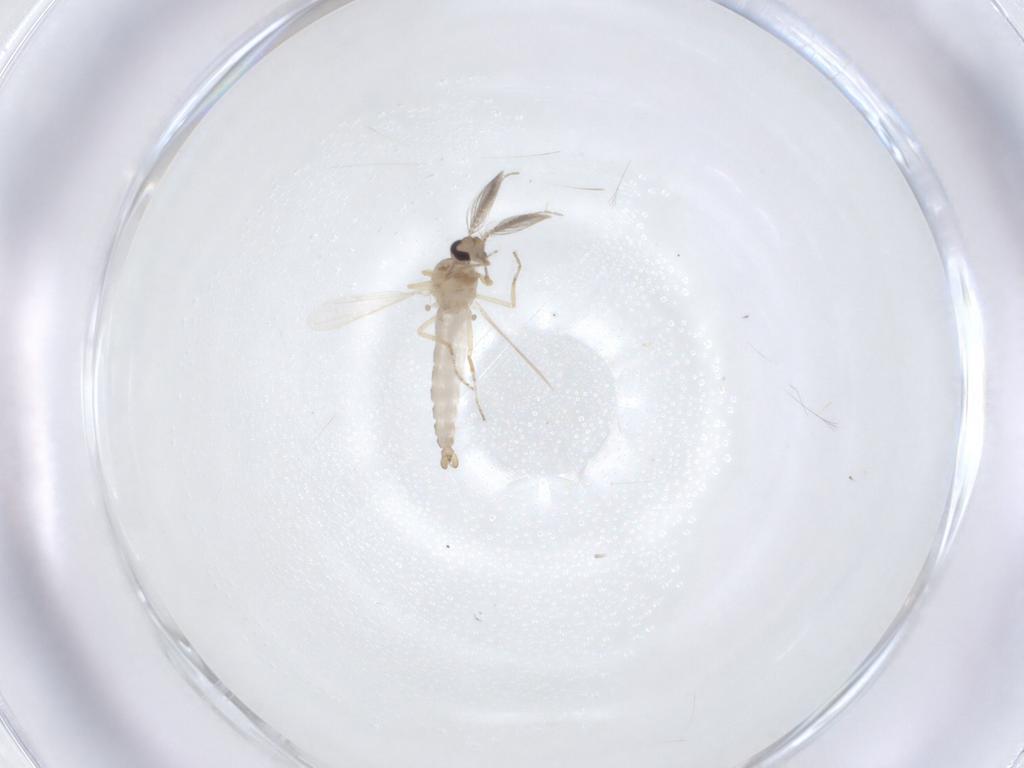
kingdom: Animalia
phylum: Arthropoda
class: Insecta
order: Diptera
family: Ceratopogonidae
